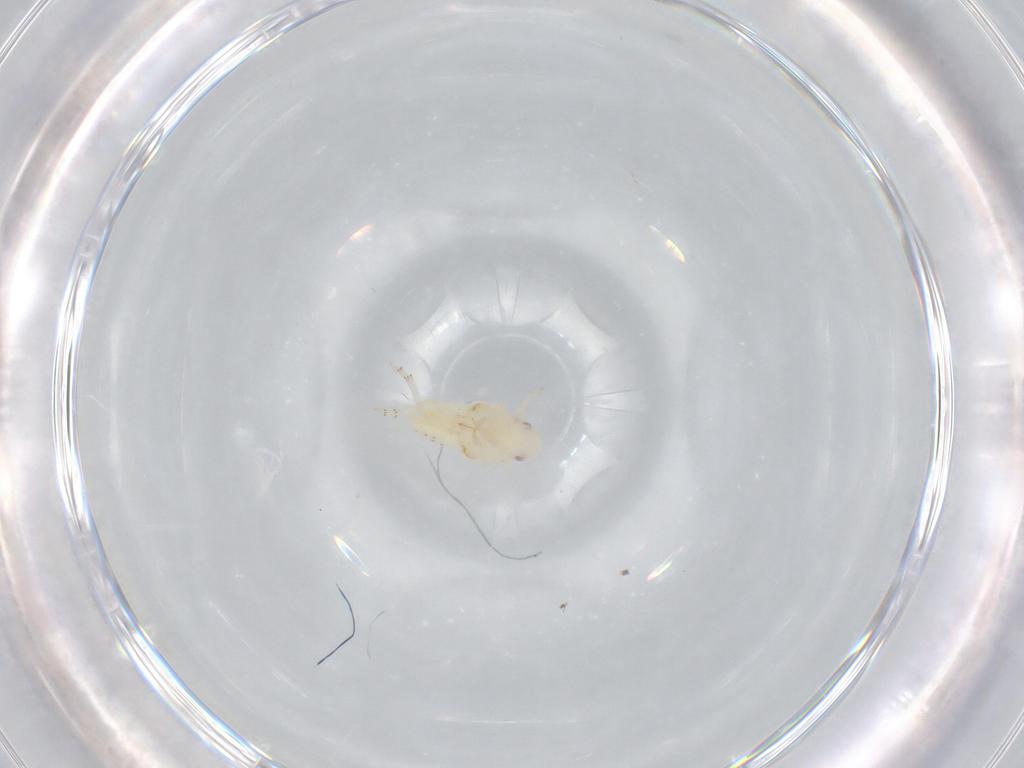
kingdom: Animalia
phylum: Arthropoda
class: Insecta
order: Hemiptera
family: Flatidae
